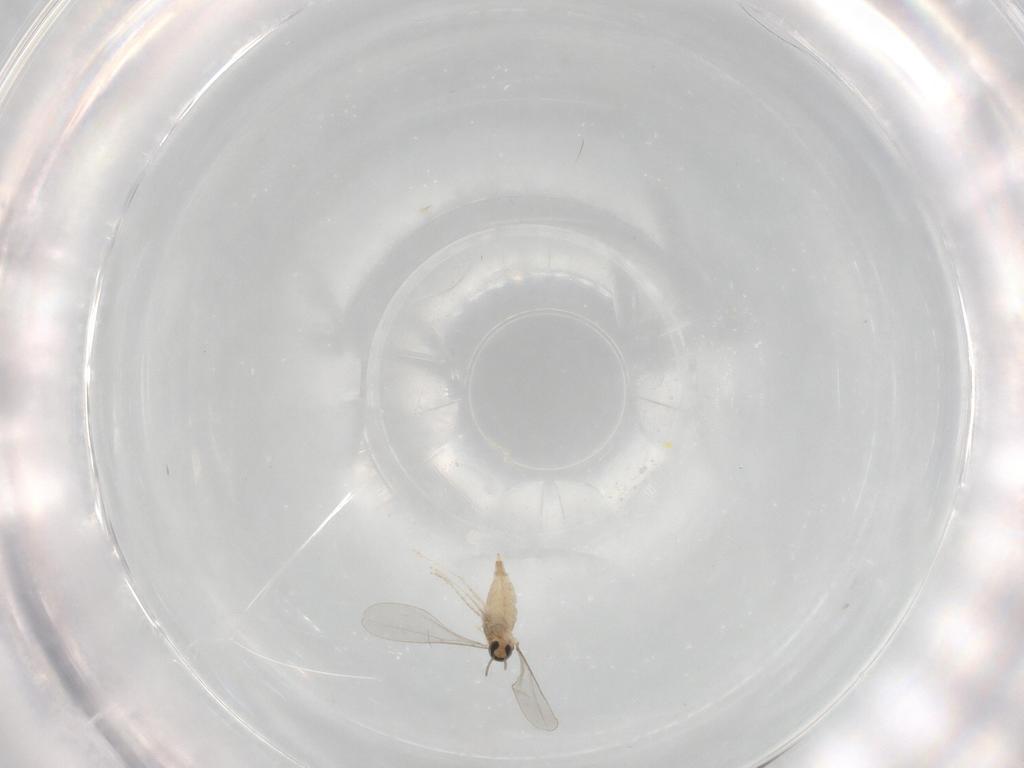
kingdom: Animalia
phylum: Arthropoda
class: Insecta
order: Diptera
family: Cecidomyiidae
